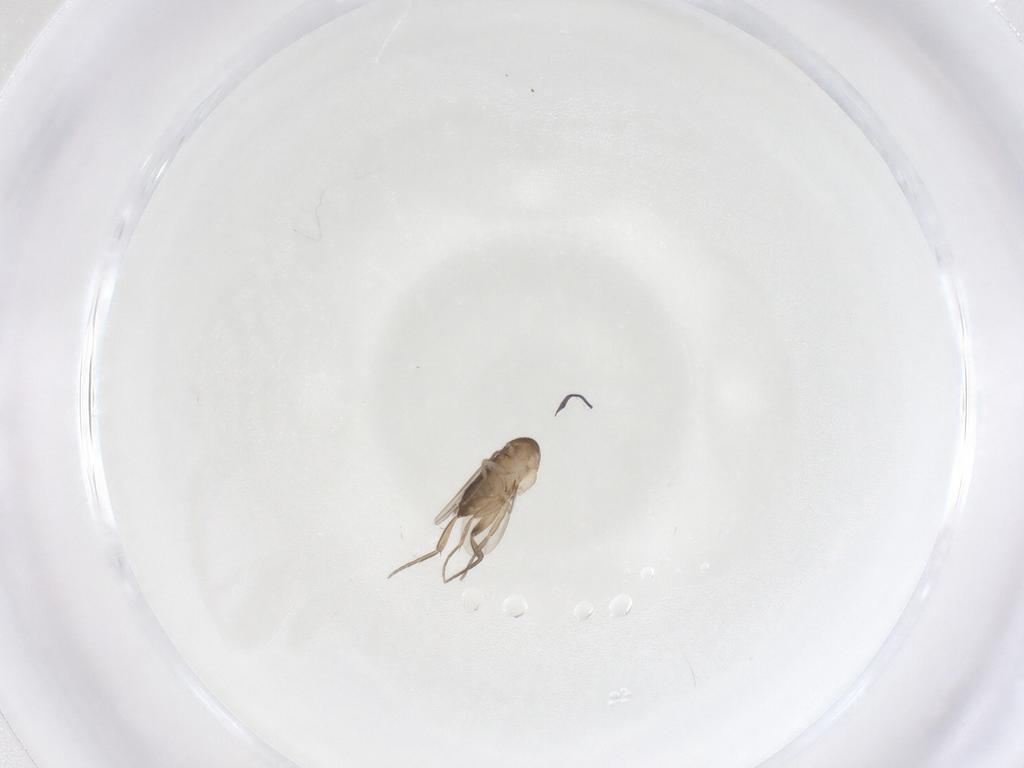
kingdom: Animalia
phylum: Arthropoda
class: Insecta
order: Diptera
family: Phoridae
